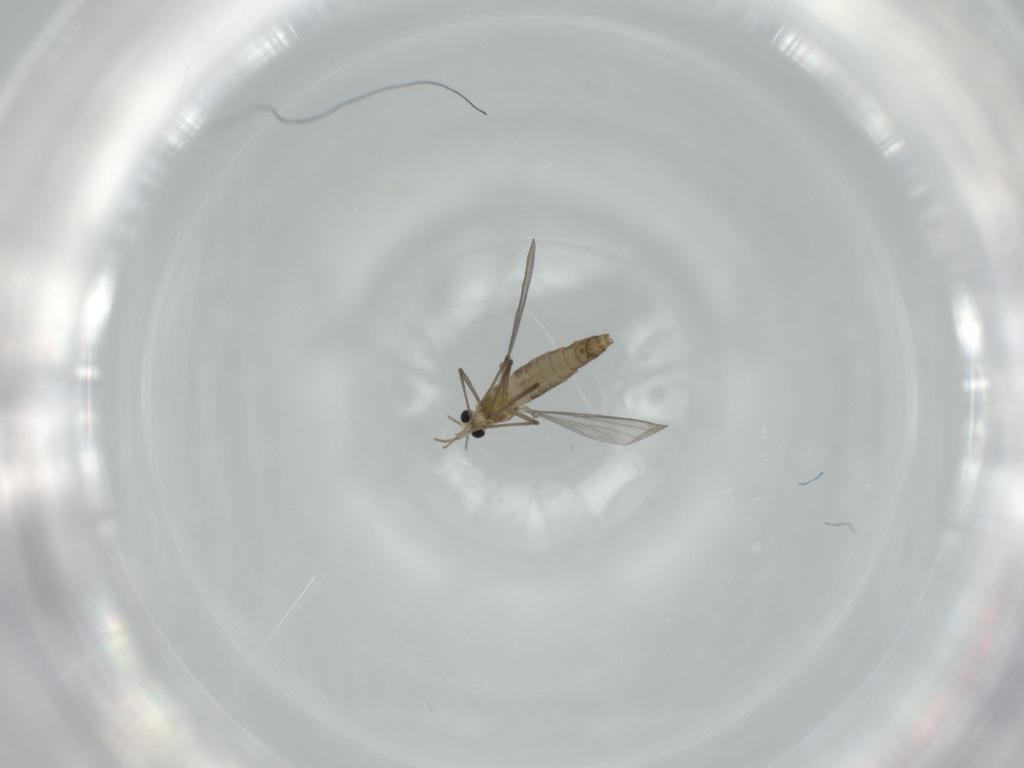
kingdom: Animalia
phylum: Arthropoda
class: Insecta
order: Diptera
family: Chironomidae
